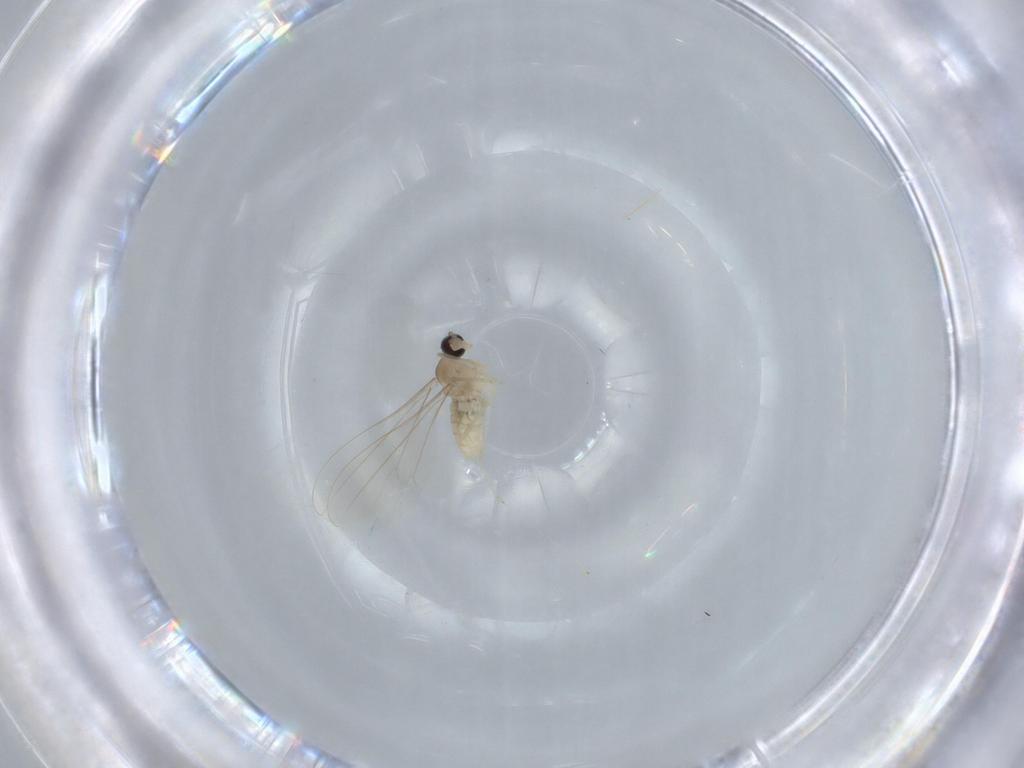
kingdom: Animalia
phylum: Arthropoda
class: Insecta
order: Diptera
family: Cecidomyiidae
